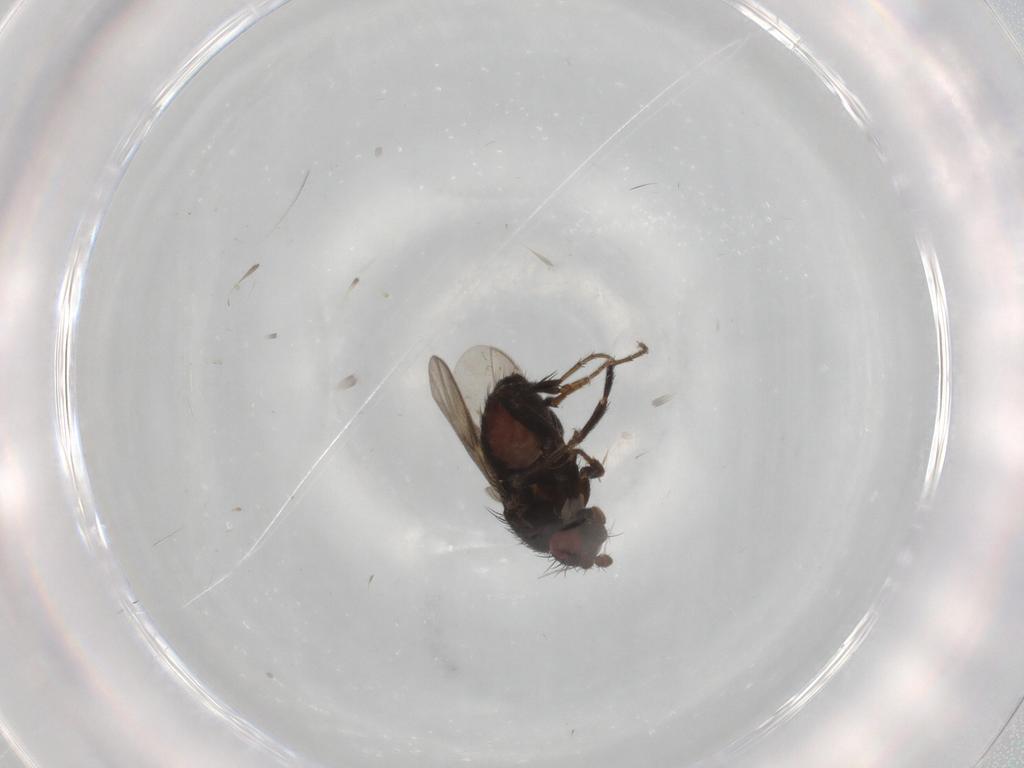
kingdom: Animalia
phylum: Arthropoda
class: Insecta
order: Diptera
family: Sphaeroceridae
